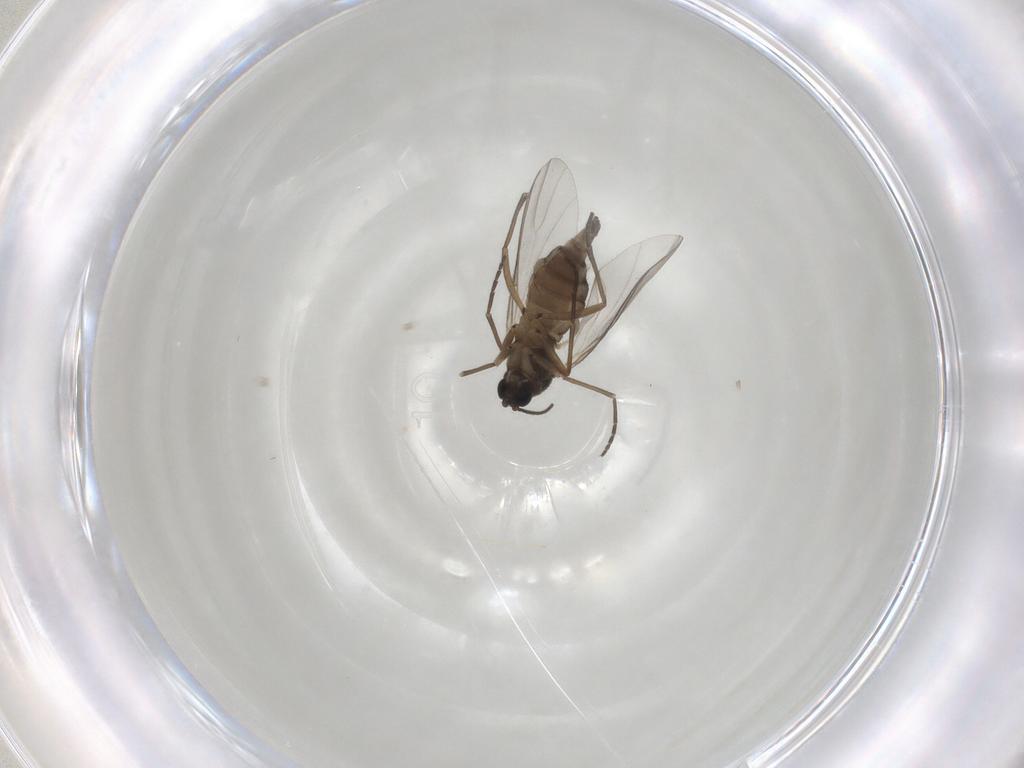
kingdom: Animalia
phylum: Arthropoda
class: Insecta
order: Diptera
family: Sciaridae
